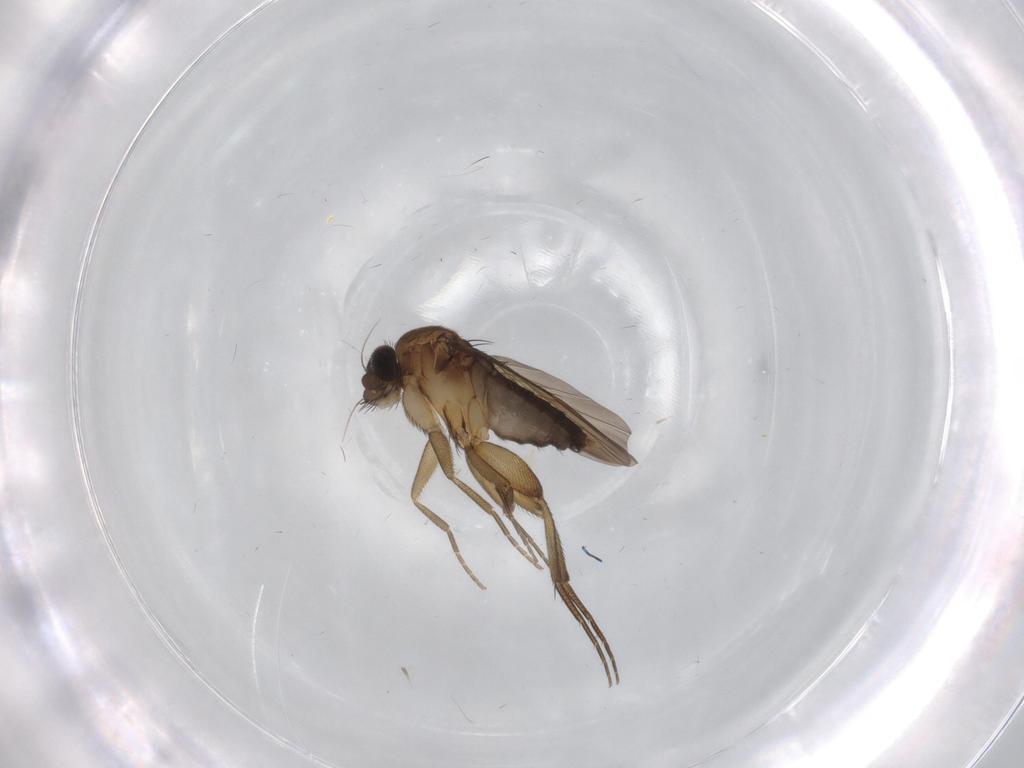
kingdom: Animalia
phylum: Arthropoda
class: Insecta
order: Diptera
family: Phoridae
